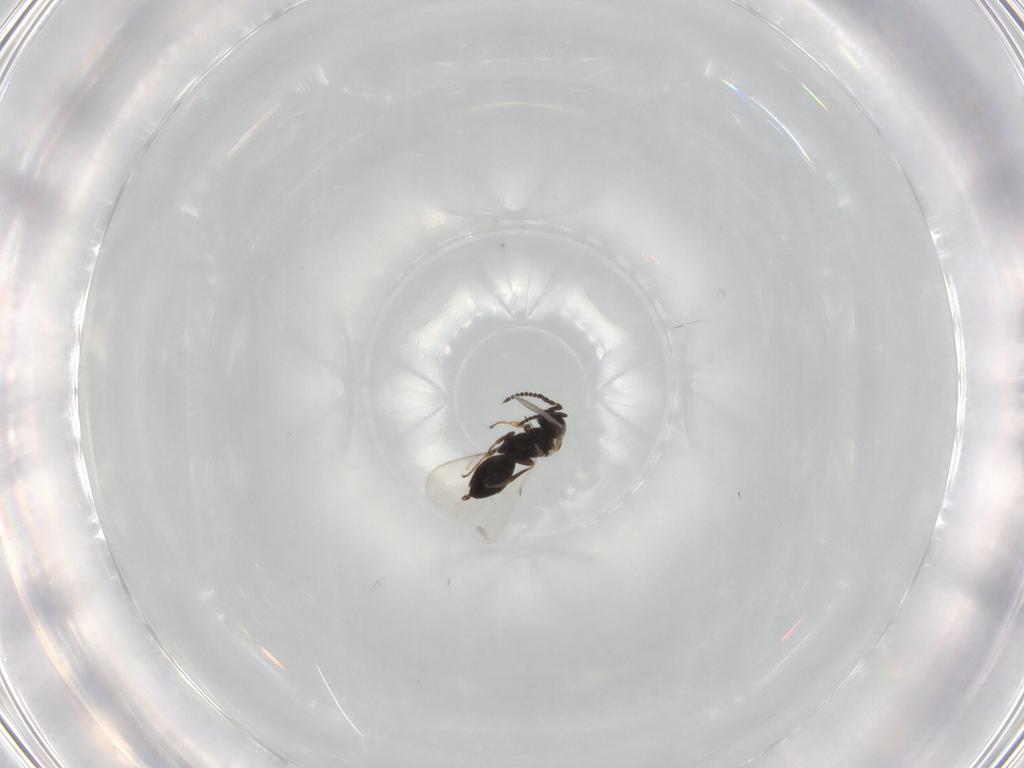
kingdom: Animalia
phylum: Arthropoda
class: Insecta
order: Hymenoptera
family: Scelionidae
